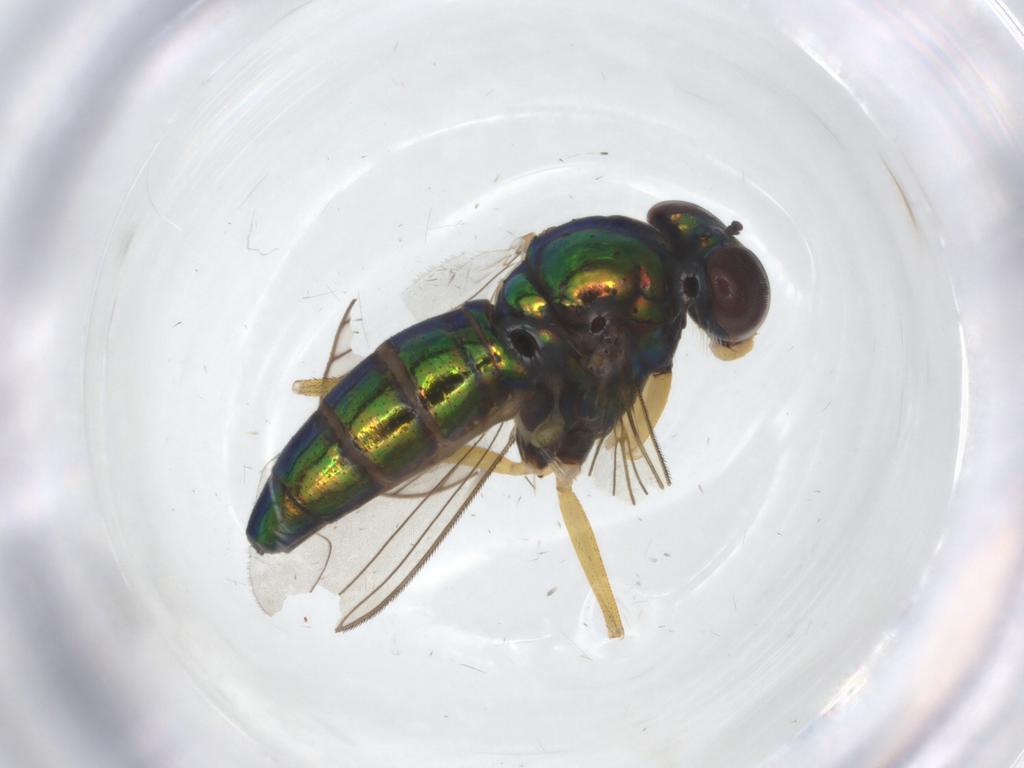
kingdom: Animalia
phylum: Arthropoda
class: Insecta
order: Diptera
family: Dolichopodidae
